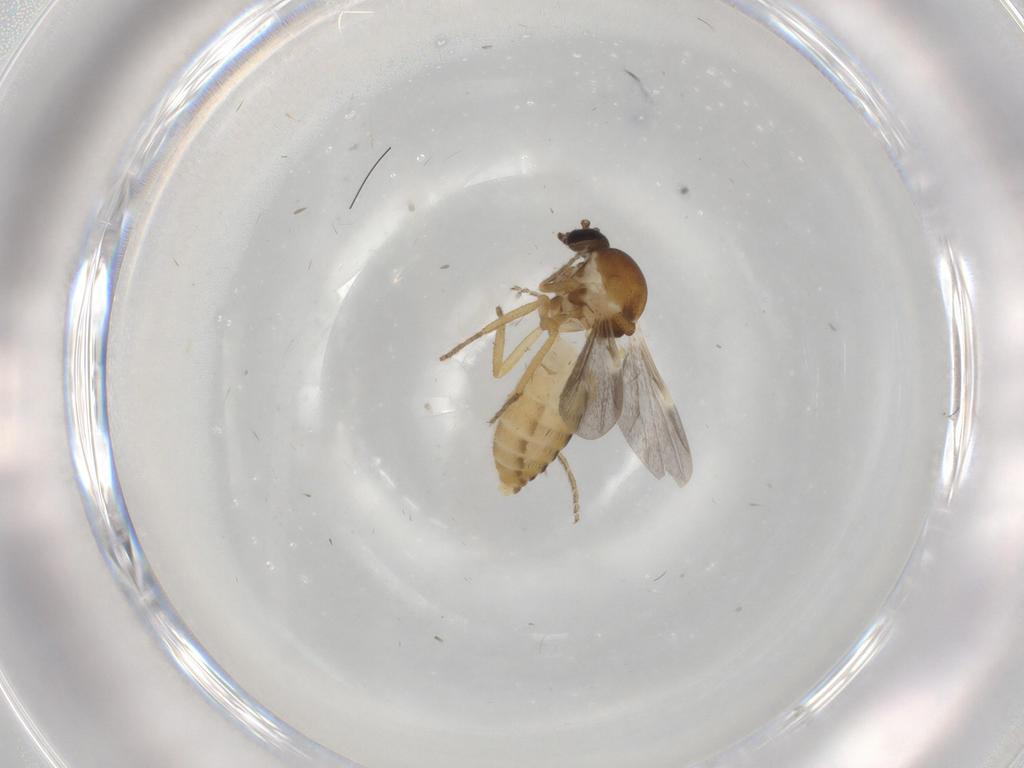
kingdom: Animalia
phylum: Arthropoda
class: Insecta
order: Diptera
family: Ceratopogonidae
